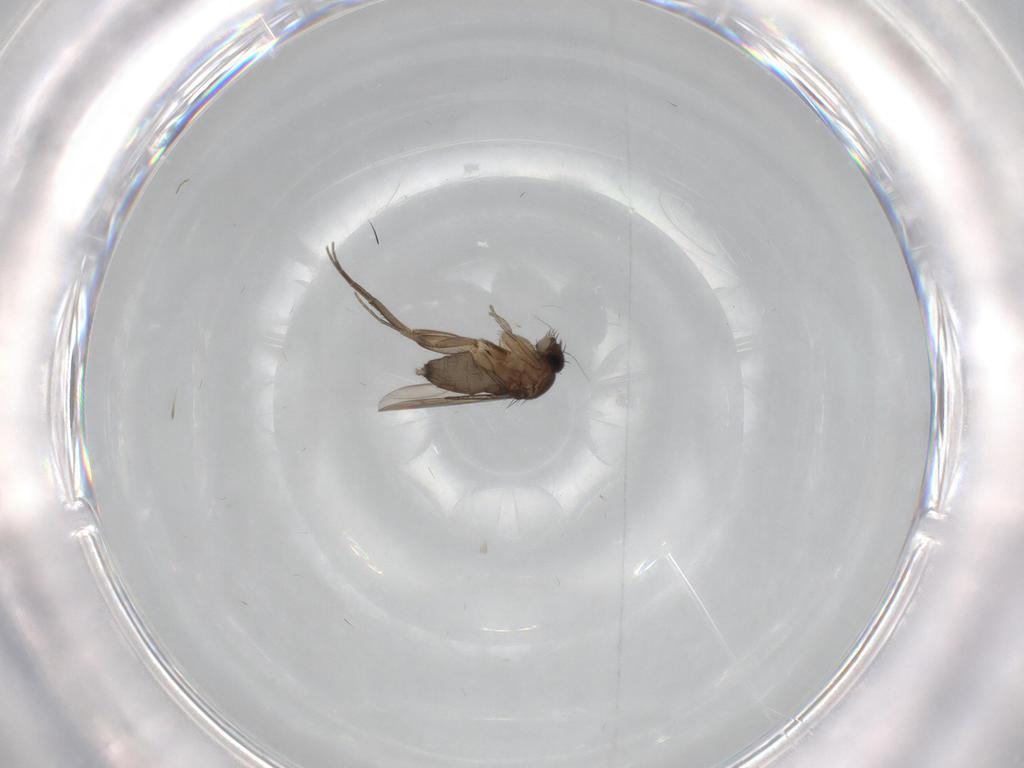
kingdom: Animalia
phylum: Arthropoda
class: Insecta
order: Diptera
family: Phoridae
